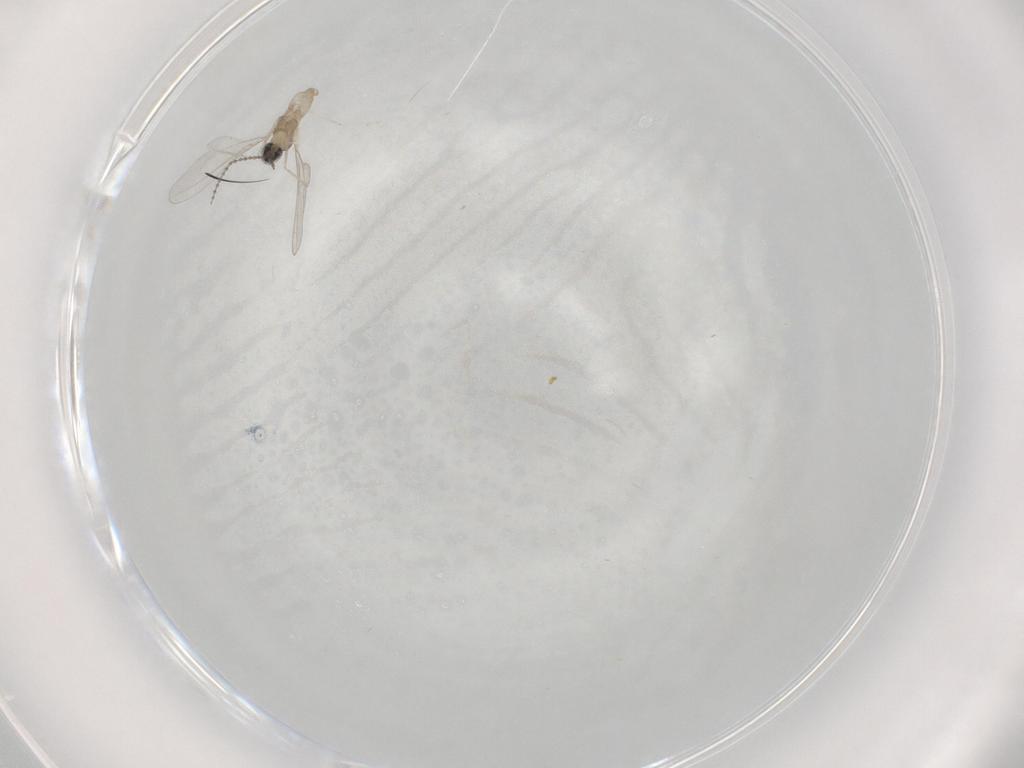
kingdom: Animalia
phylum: Arthropoda
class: Insecta
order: Diptera
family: Cecidomyiidae
